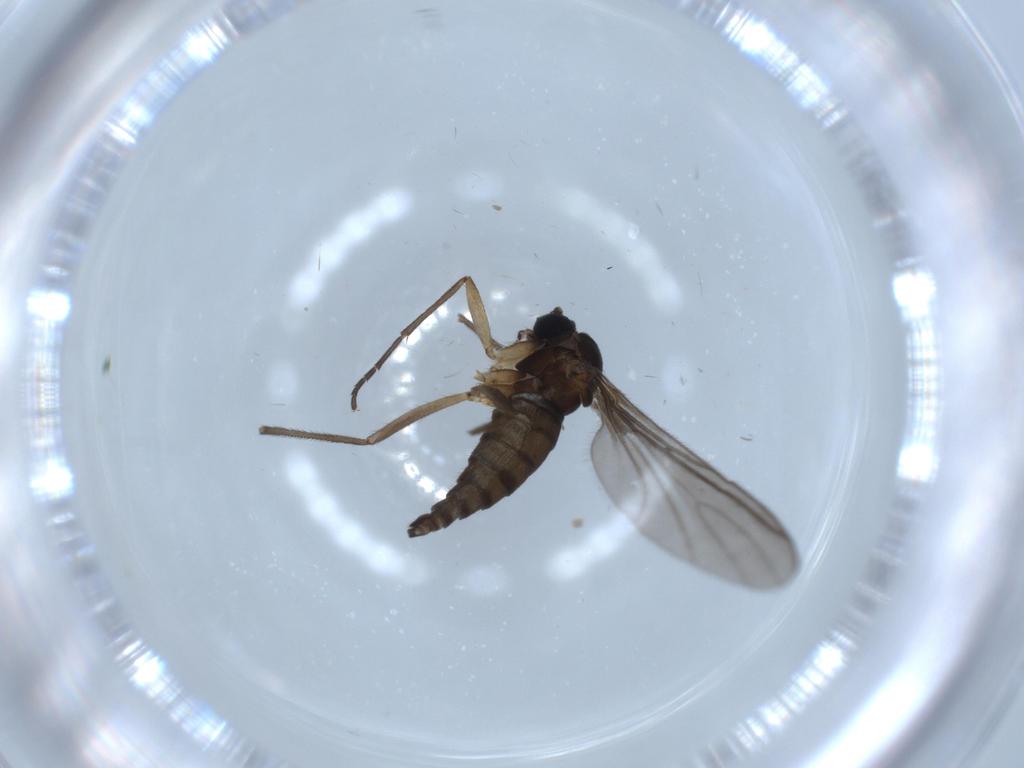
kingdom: Animalia
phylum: Arthropoda
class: Insecta
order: Diptera
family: Sciaridae
